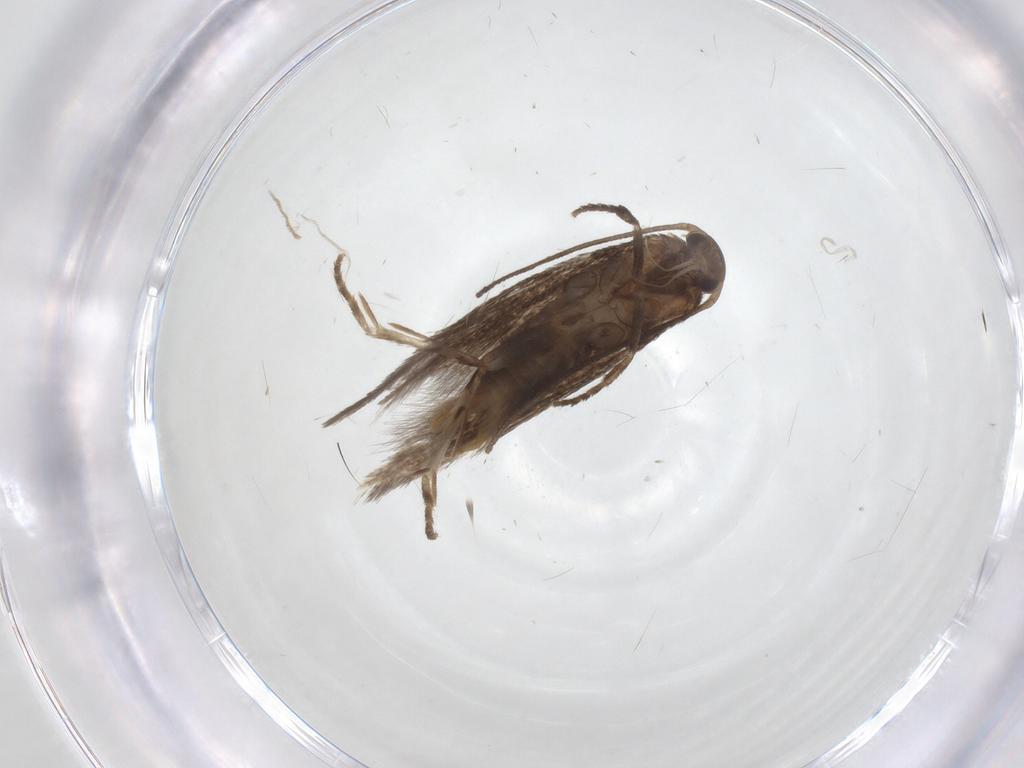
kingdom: Animalia
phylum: Arthropoda
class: Insecta
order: Lepidoptera
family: Elachistidae
